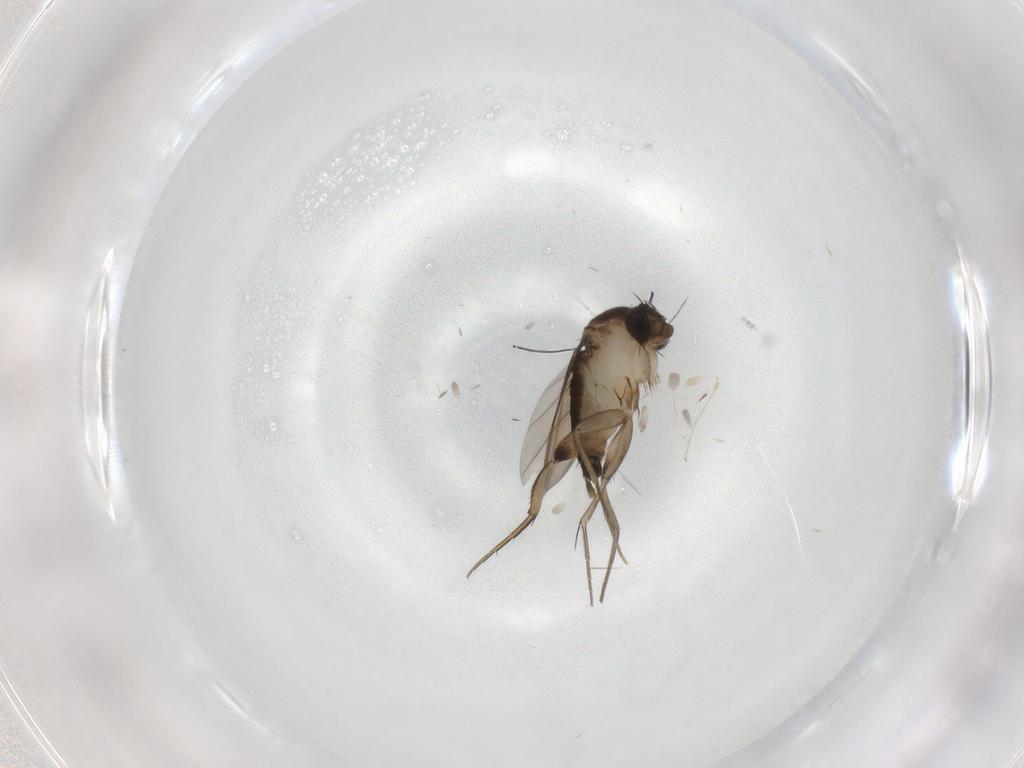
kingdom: Animalia
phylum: Arthropoda
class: Insecta
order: Diptera
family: Phoridae
